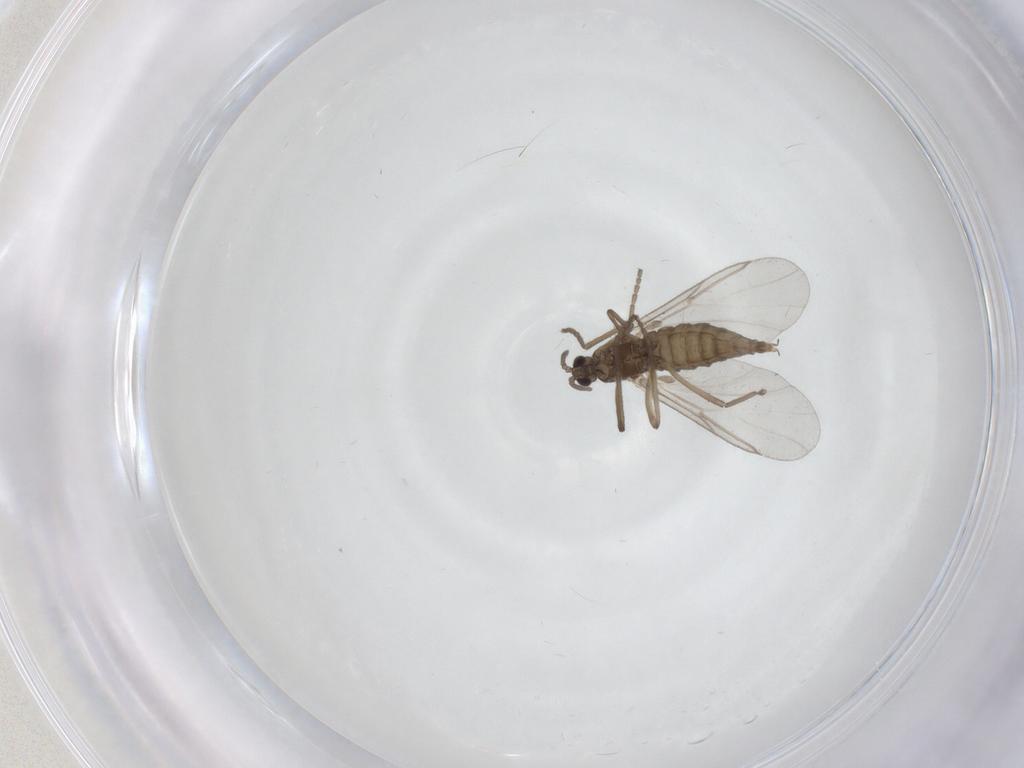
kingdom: Animalia
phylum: Arthropoda
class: Insecta
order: Diptera
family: Cecidomyiidae
